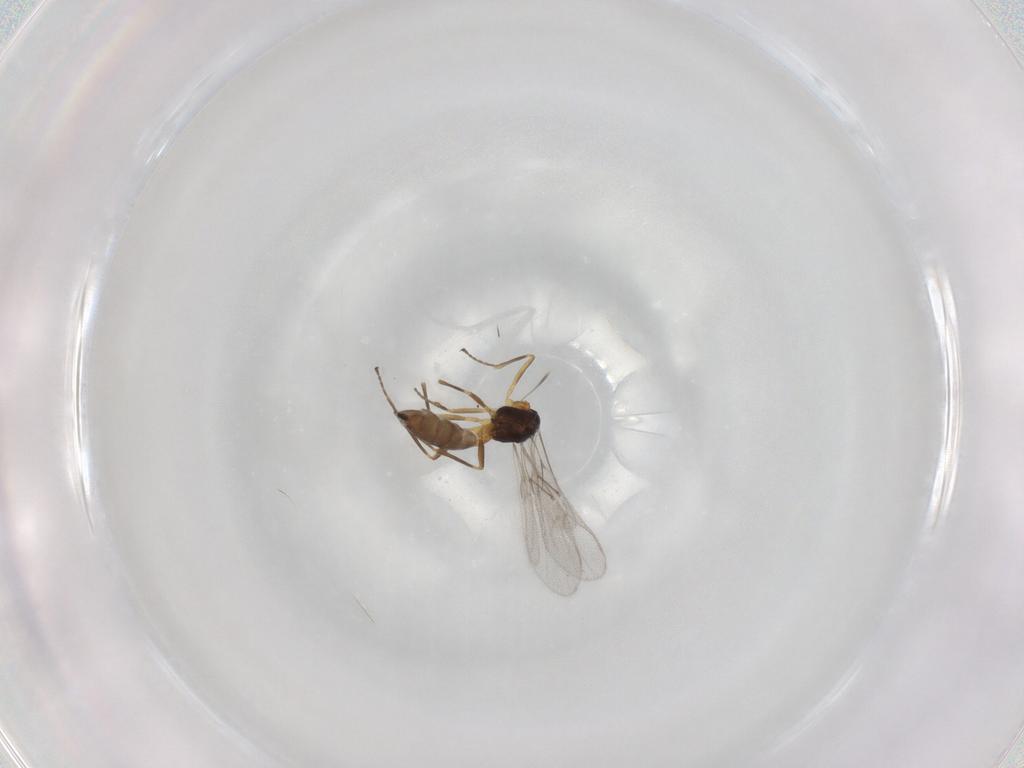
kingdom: Animalia
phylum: Arthropoda
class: Insecta
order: Hymenoptera
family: Braconidae
